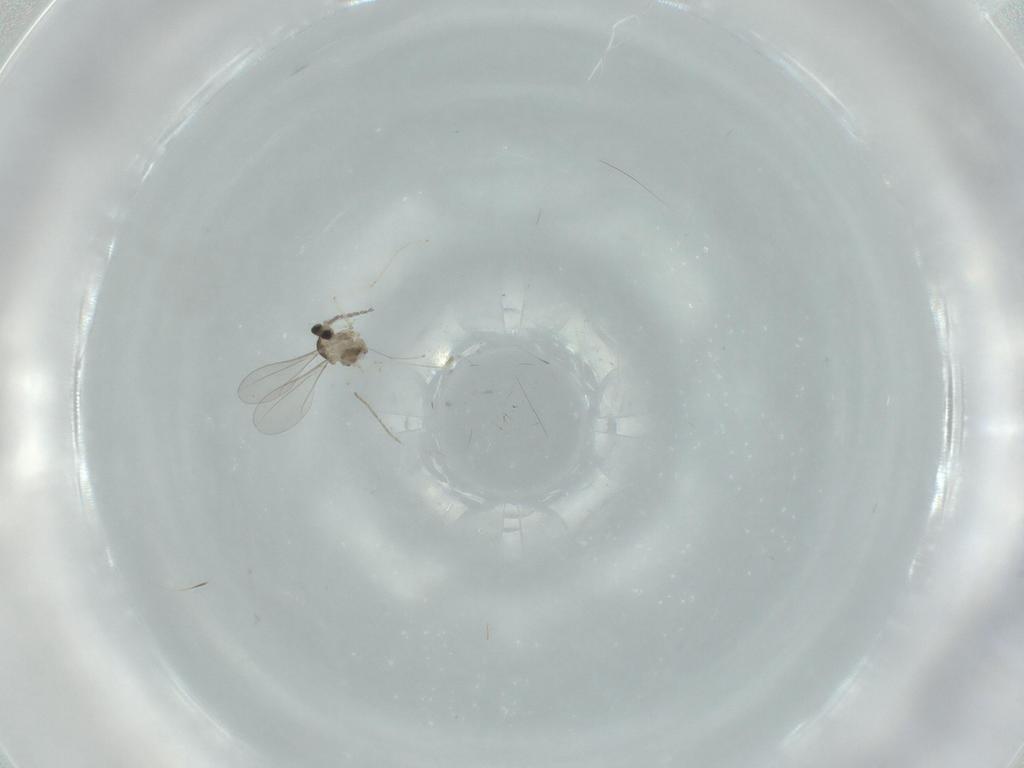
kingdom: Animalia
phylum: Arthropoda
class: Insecta
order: Diptera
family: Cecidomyiidae
